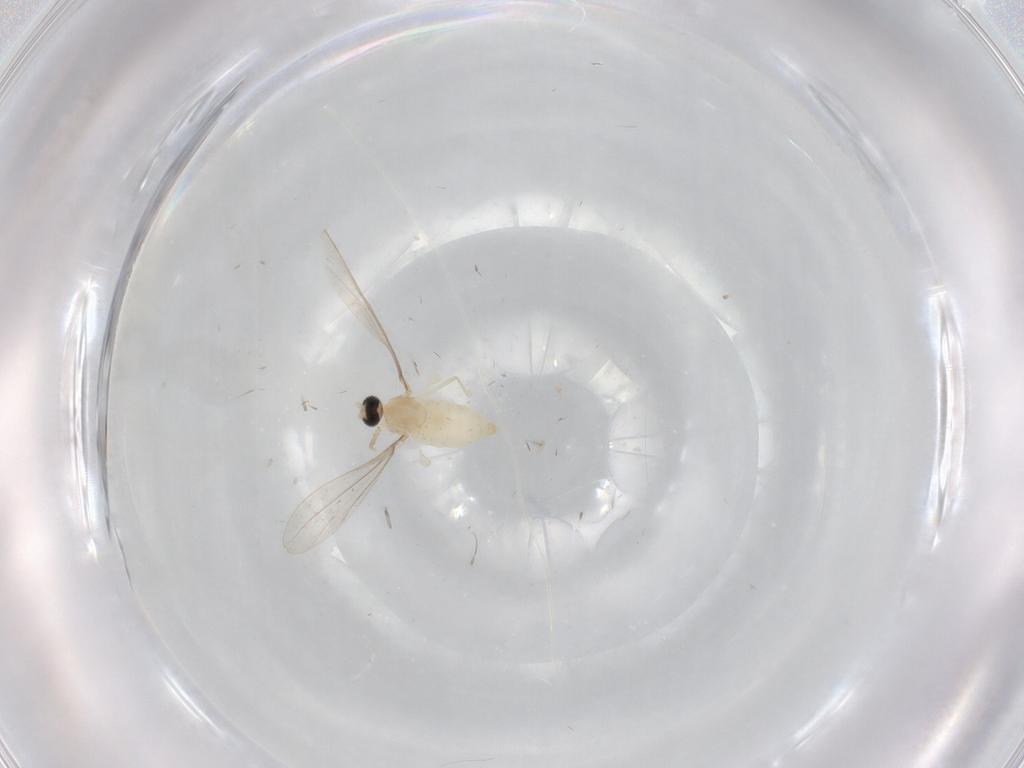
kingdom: Animalia
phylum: Arthropoda
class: Insecta
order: Diptera
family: Cecidomyiidae
